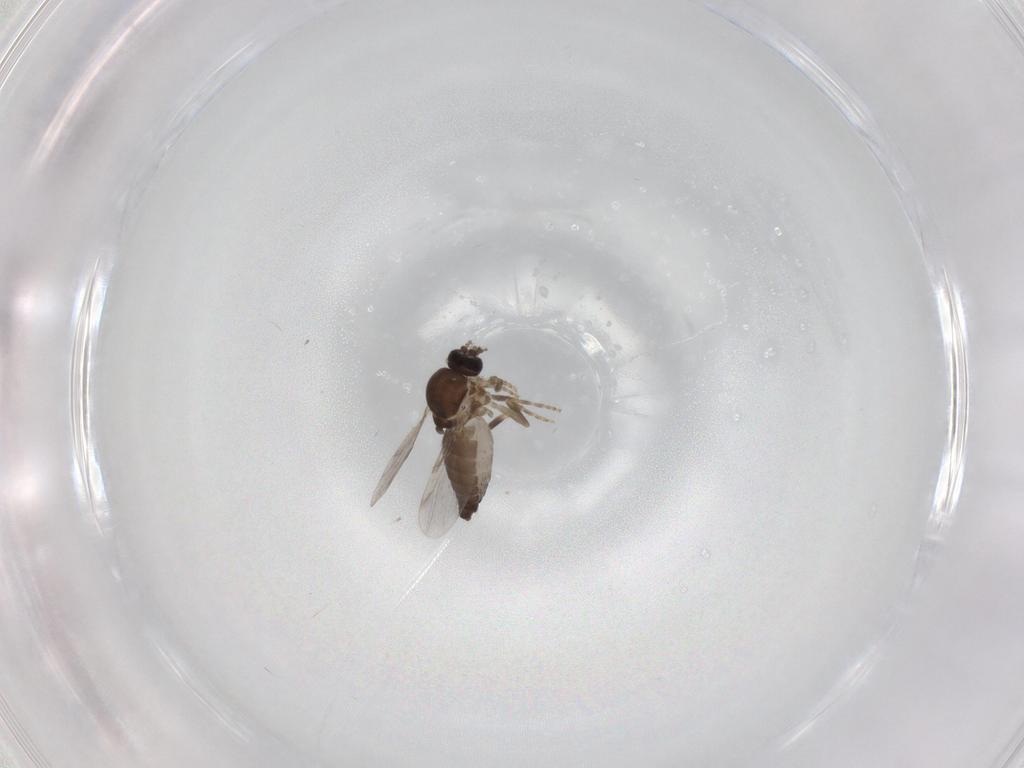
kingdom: Animalia
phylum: Arthropoda
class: Insecta
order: Diptera
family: Ceratopogonidae
